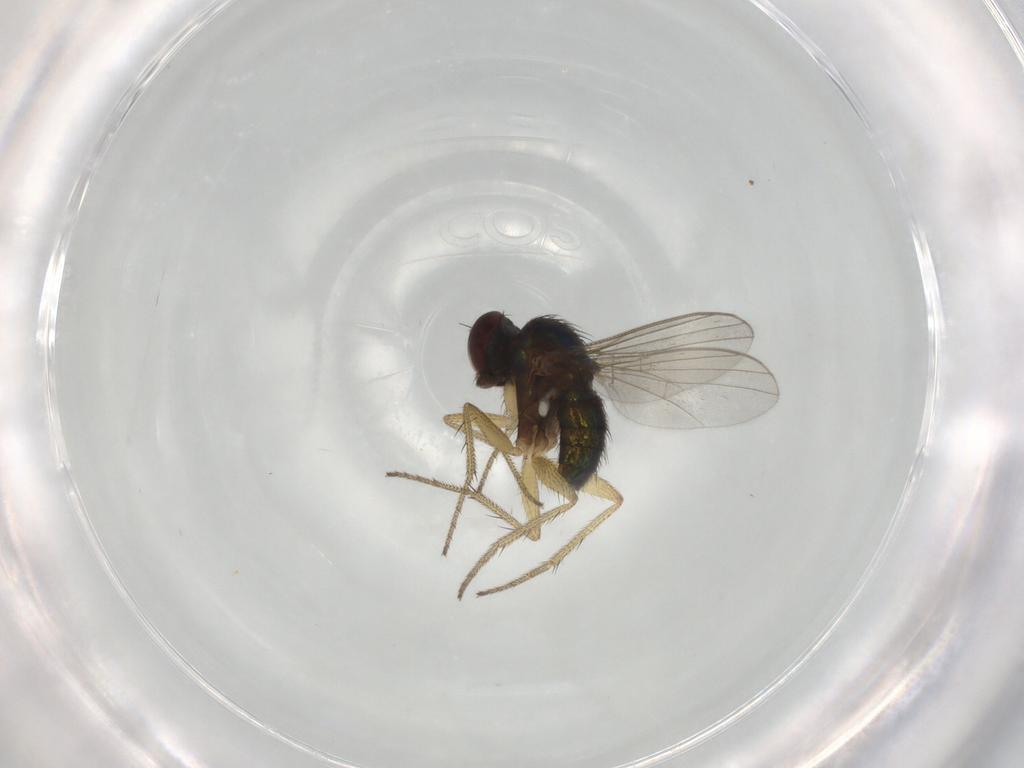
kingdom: Animalia
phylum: Arthropoda
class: Insecta
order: Diptera
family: Dolichopodidae
